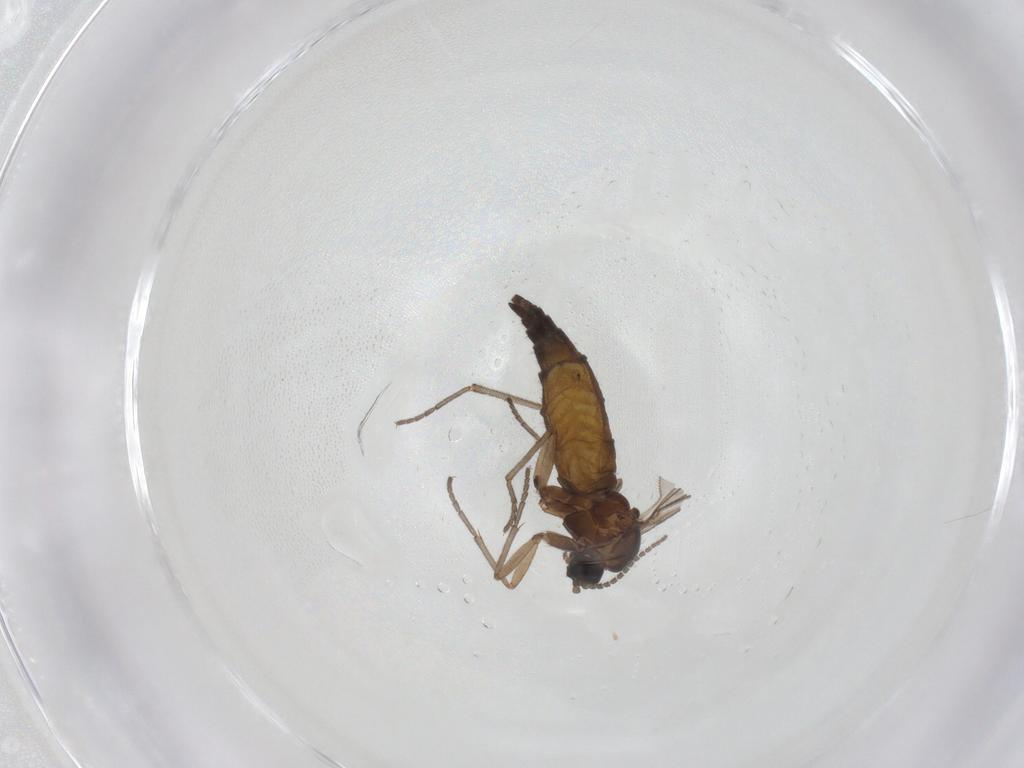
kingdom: Animalia
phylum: Arthropoda
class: Insecta
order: Diptera
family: Sciaridae
